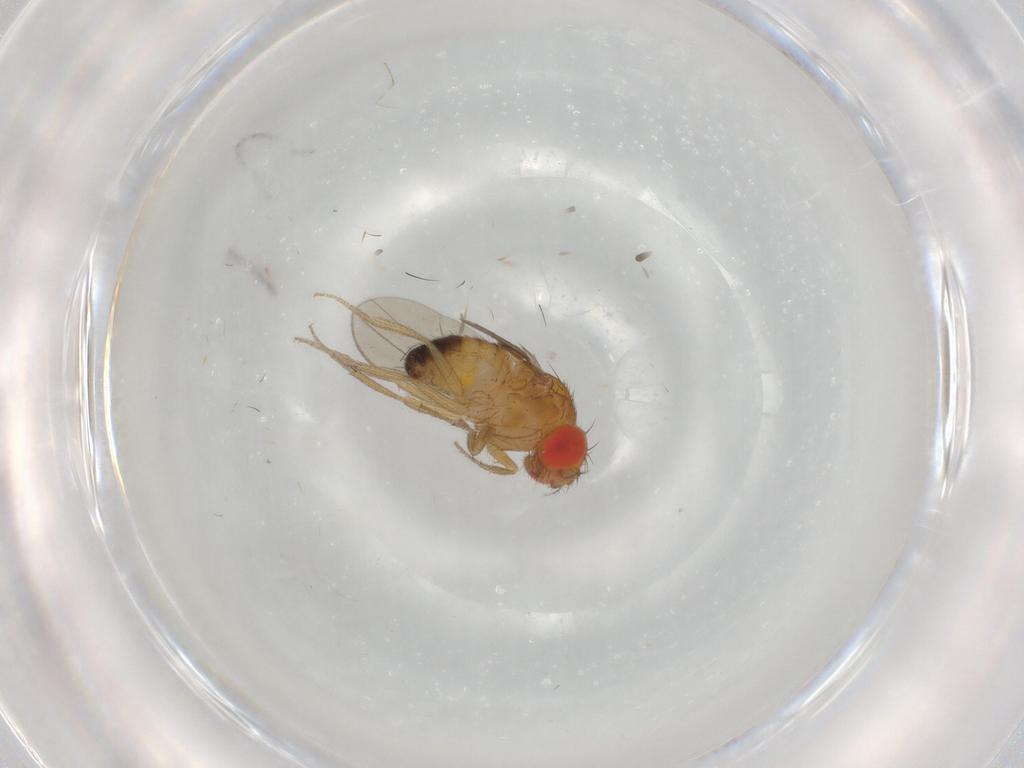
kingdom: Animalia
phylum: Arthropoda
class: Insecta
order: Diptera
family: Drosophilidae
